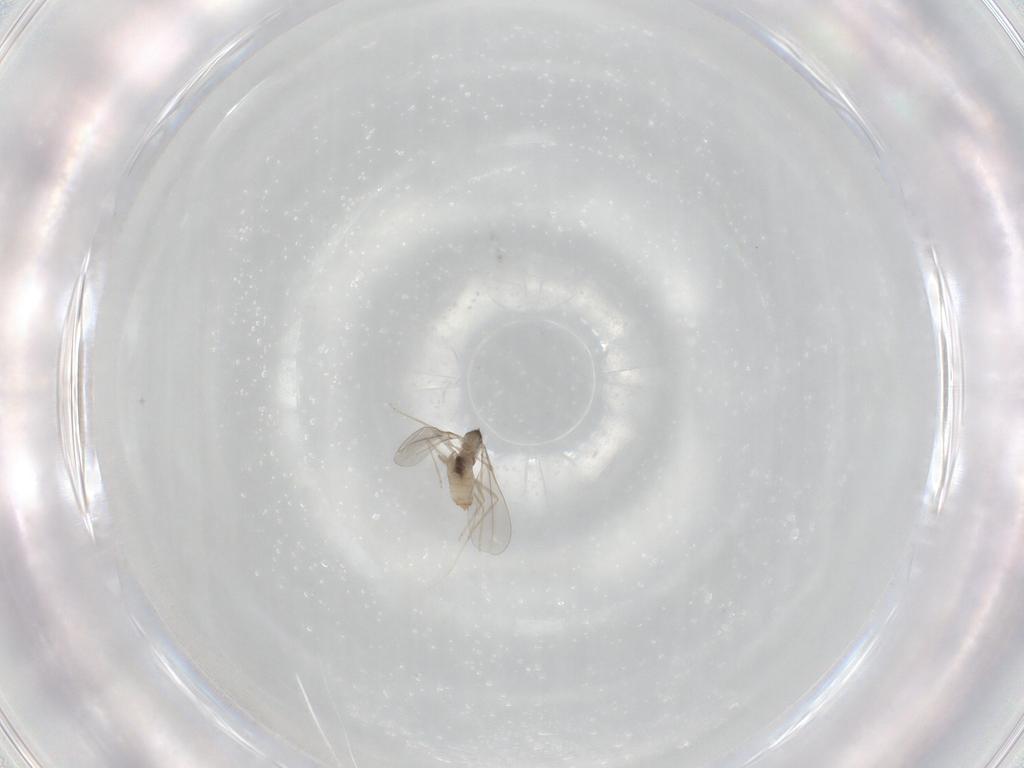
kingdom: Animalia
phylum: Arthropoda
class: Insecta
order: Diptera
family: Cecidomyiidae
